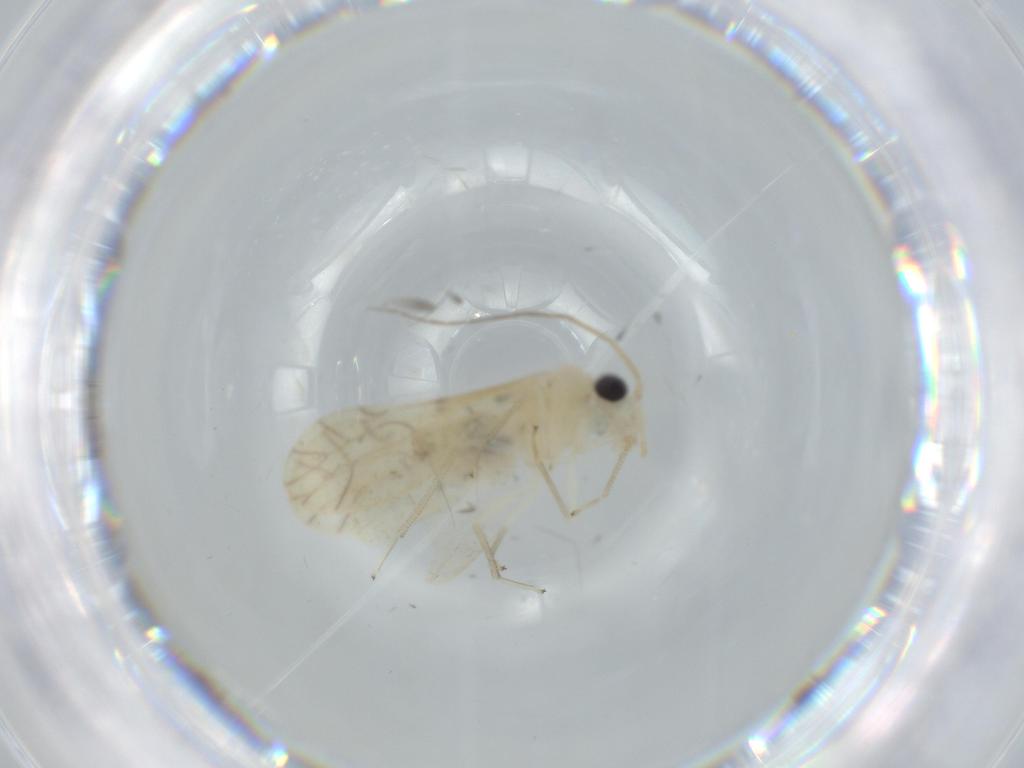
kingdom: Animalia
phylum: Arthropoda
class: Insecta
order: Psocodea
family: Caeciliusidae
